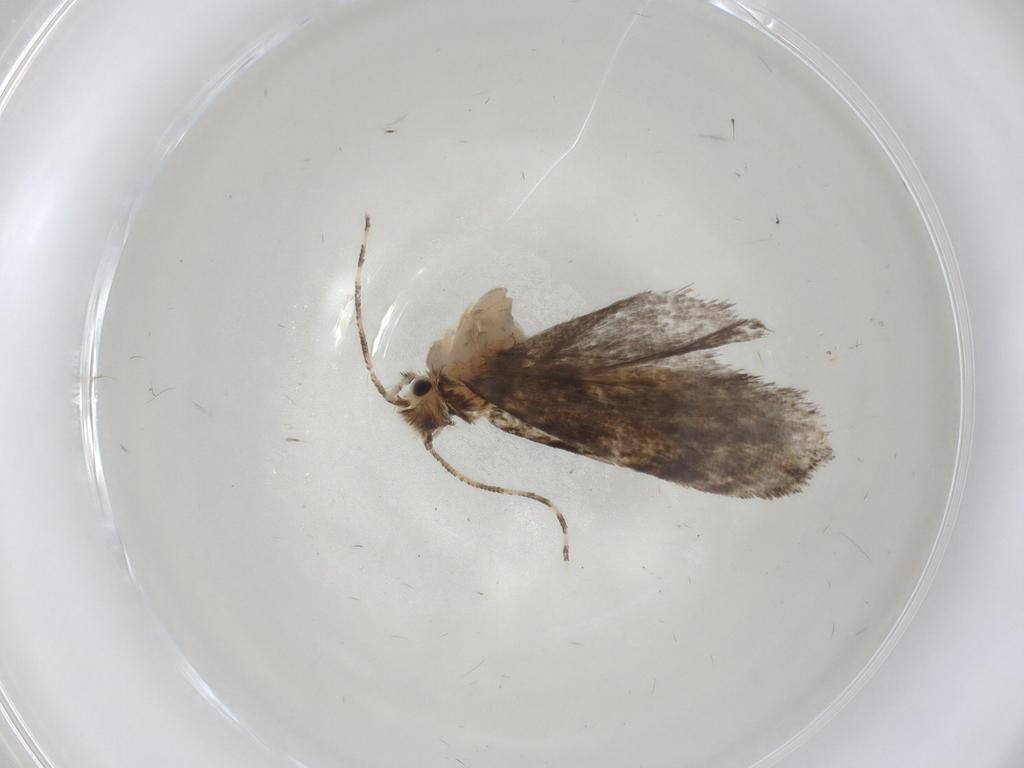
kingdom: Animalia
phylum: Arthropoda
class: Insecta
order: Lepidoptera
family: Tineidae
